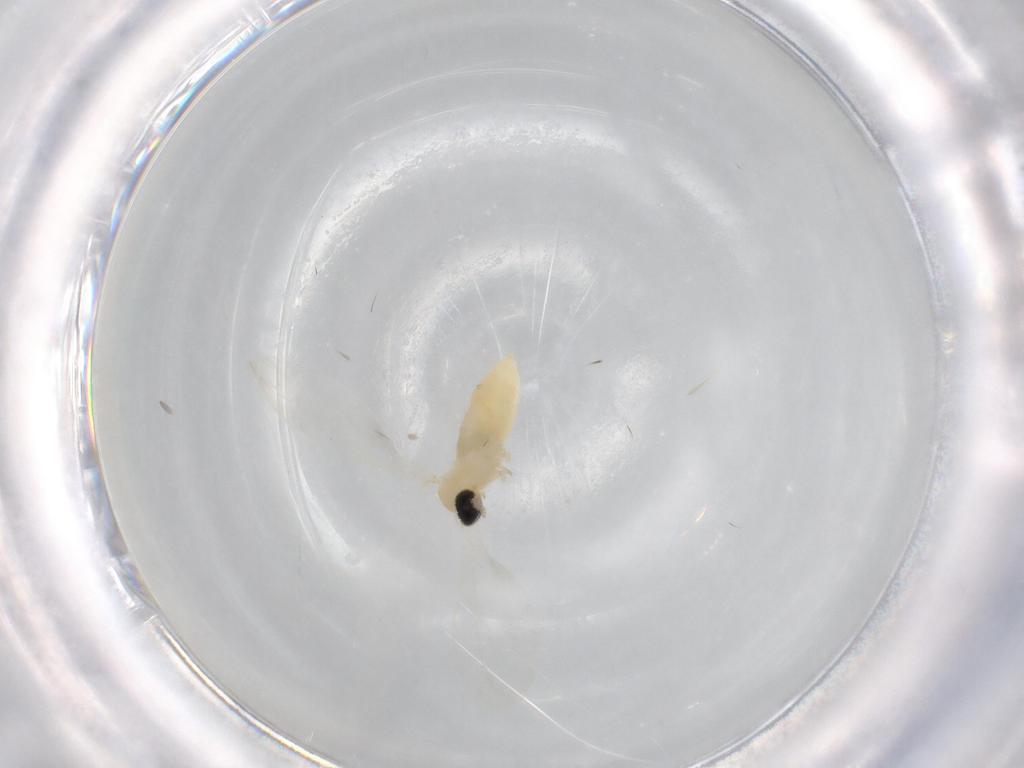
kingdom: Animalia
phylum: Arthropoda
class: Insecta
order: Diptera
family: Cecidomyiidae
